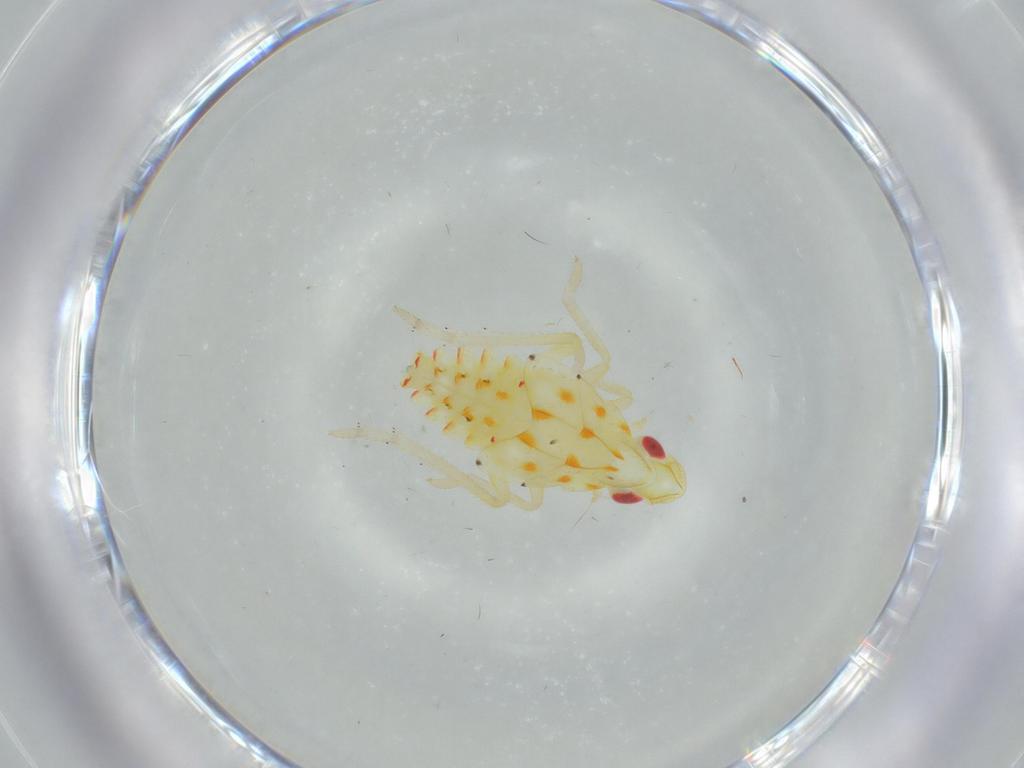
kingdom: Animalia
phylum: Arthropoda
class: Insecta
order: Hemiptera
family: Tropiduchidae
